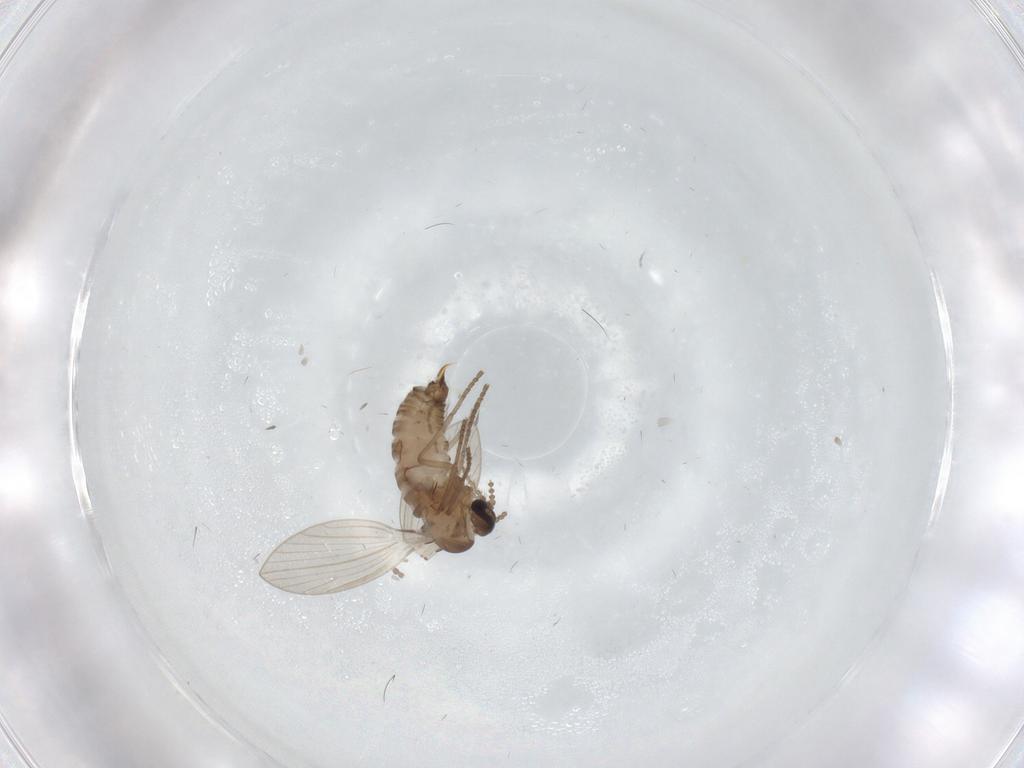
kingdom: Animalia
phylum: Arthropoda
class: Insecta
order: Diptera
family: Psychodidae
